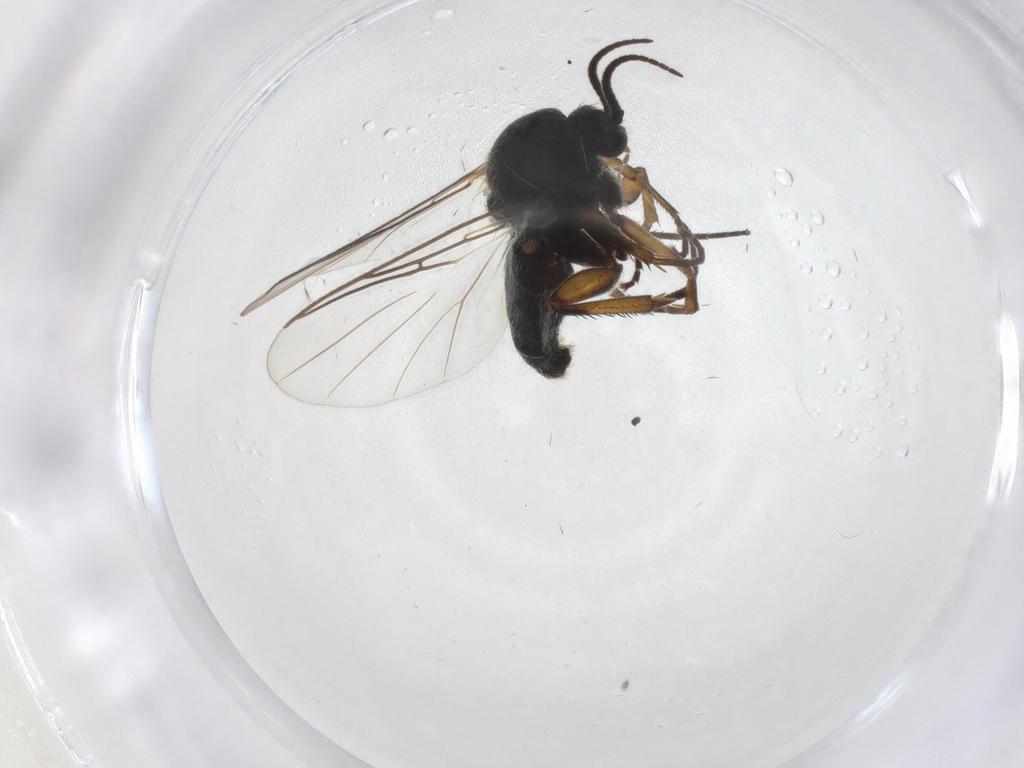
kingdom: Animalia
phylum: Arthropoda
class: Insecta
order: Diptera
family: Mycetophilidae
